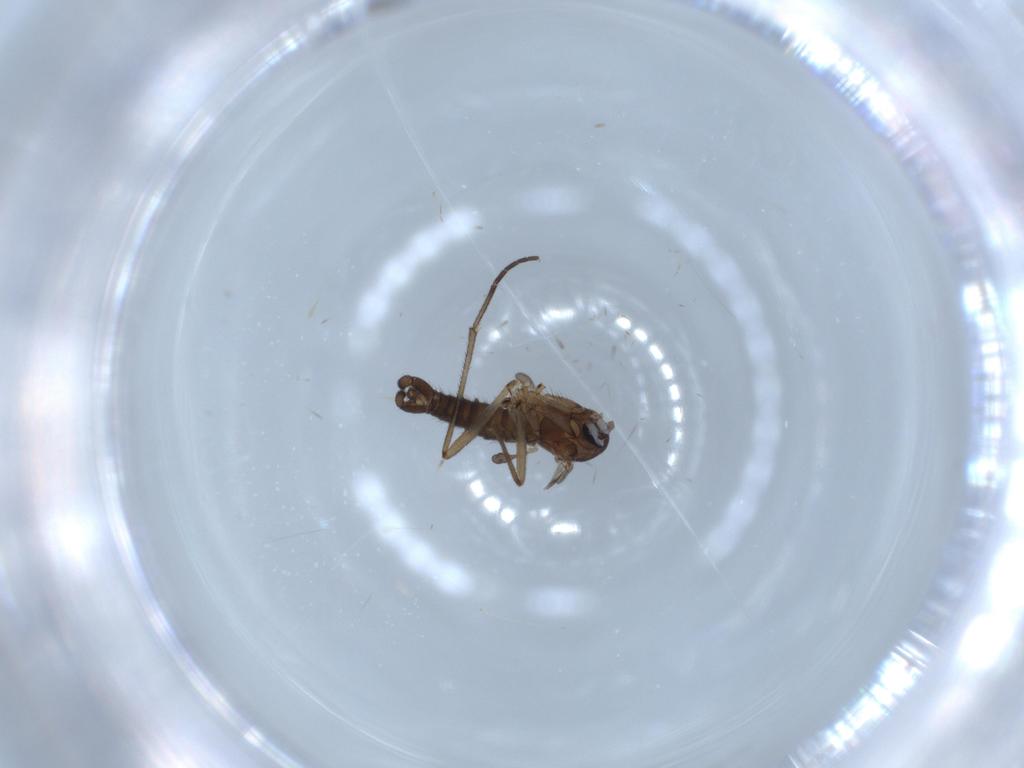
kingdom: Animalia
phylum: Arthropoda
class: Insecta
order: Diptera
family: Sciaridae
